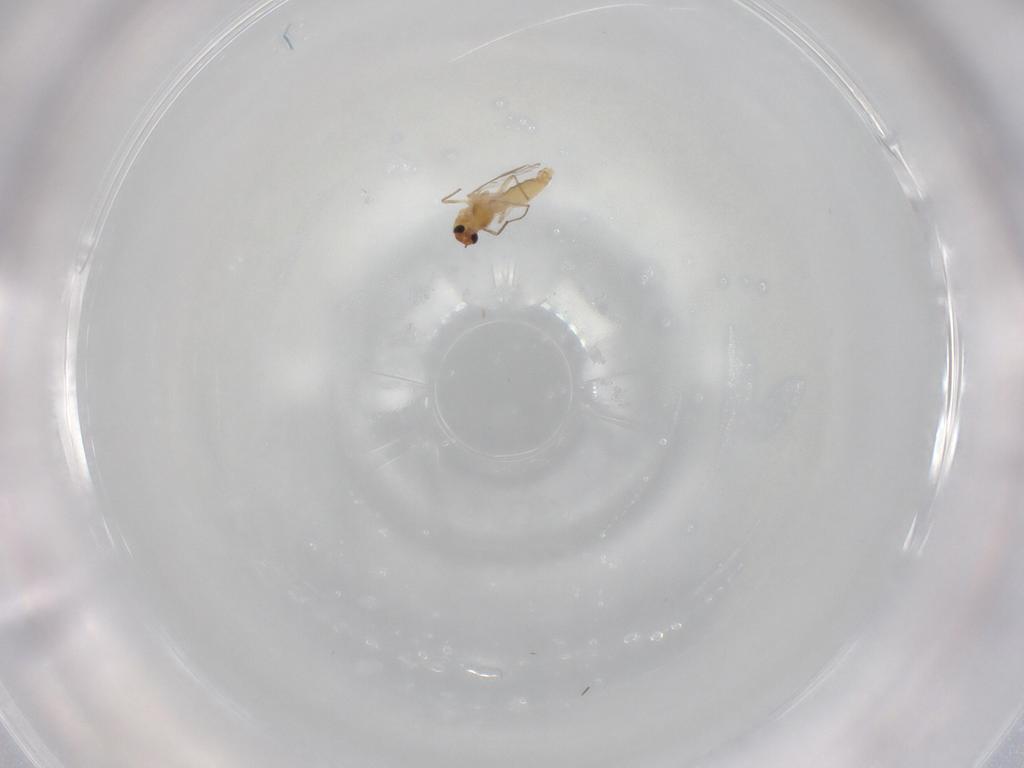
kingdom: Animalia
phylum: Arthropoda
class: Insecta
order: Diptera
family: Chironomidae
